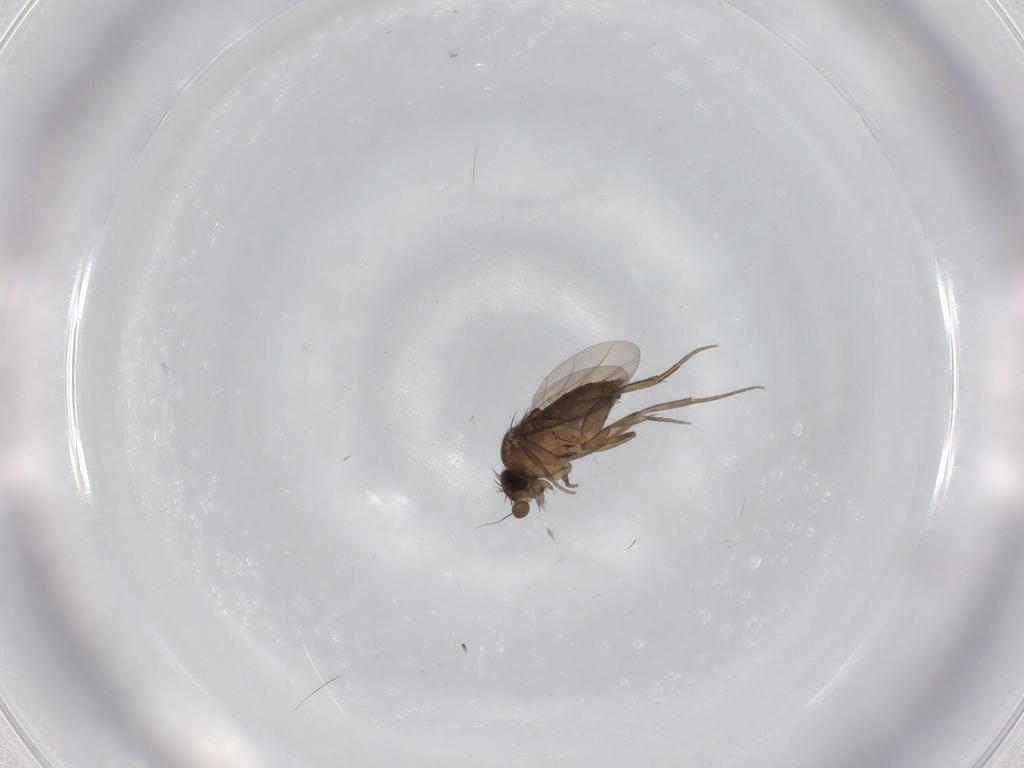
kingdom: Animalia
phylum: Arthropoda
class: Insecta
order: Diptera
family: Phoridae
